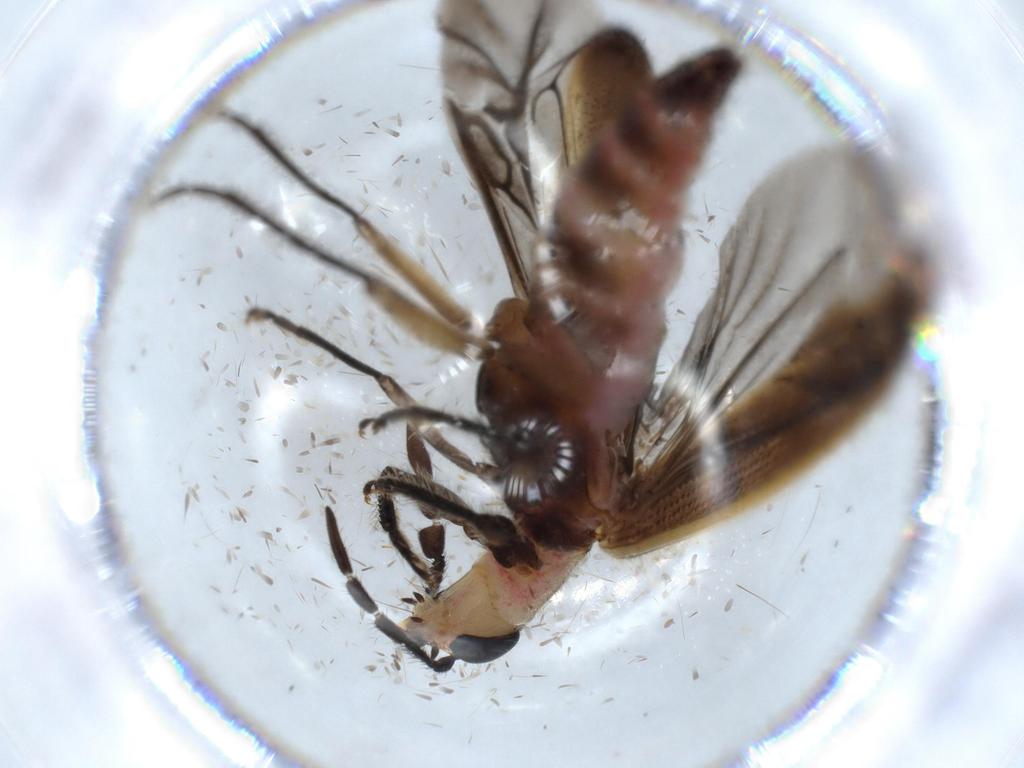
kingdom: Animalia
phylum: Arthropoda
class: Insecta
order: Coleoptera
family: Cleridae
